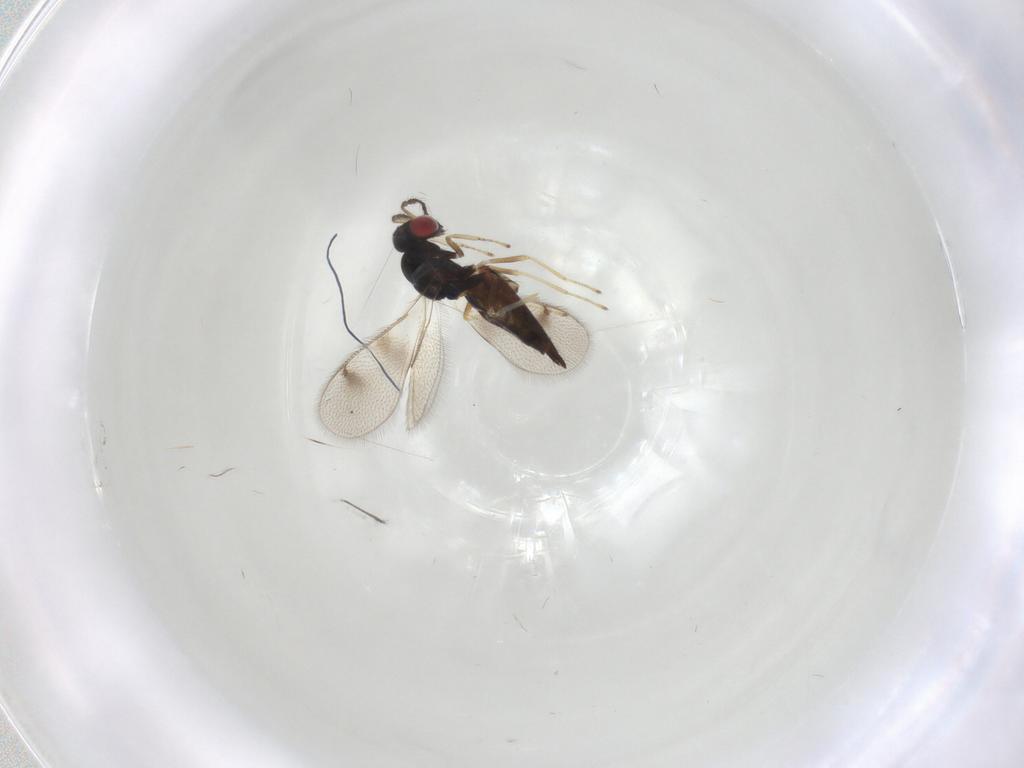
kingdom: Animalia
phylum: Arthropoda
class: Insecta
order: Hymenoptera
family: Eulophidae
